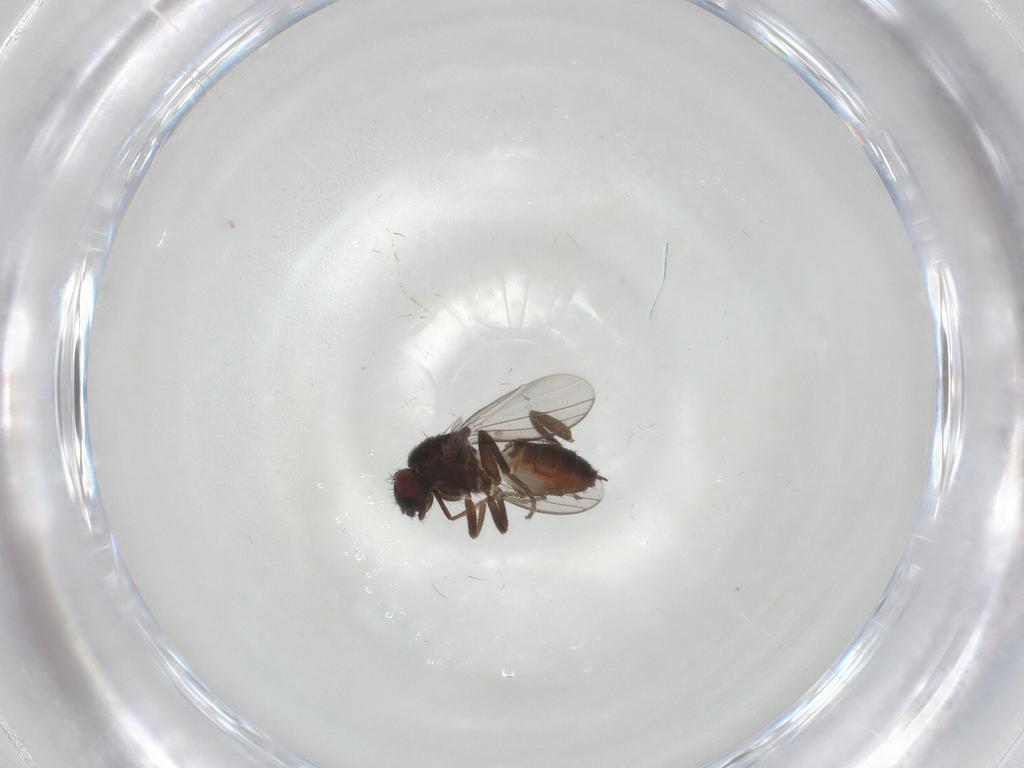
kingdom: Animalia
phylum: Arthropoda
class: Insecta
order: Diptera
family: Milichiidae
